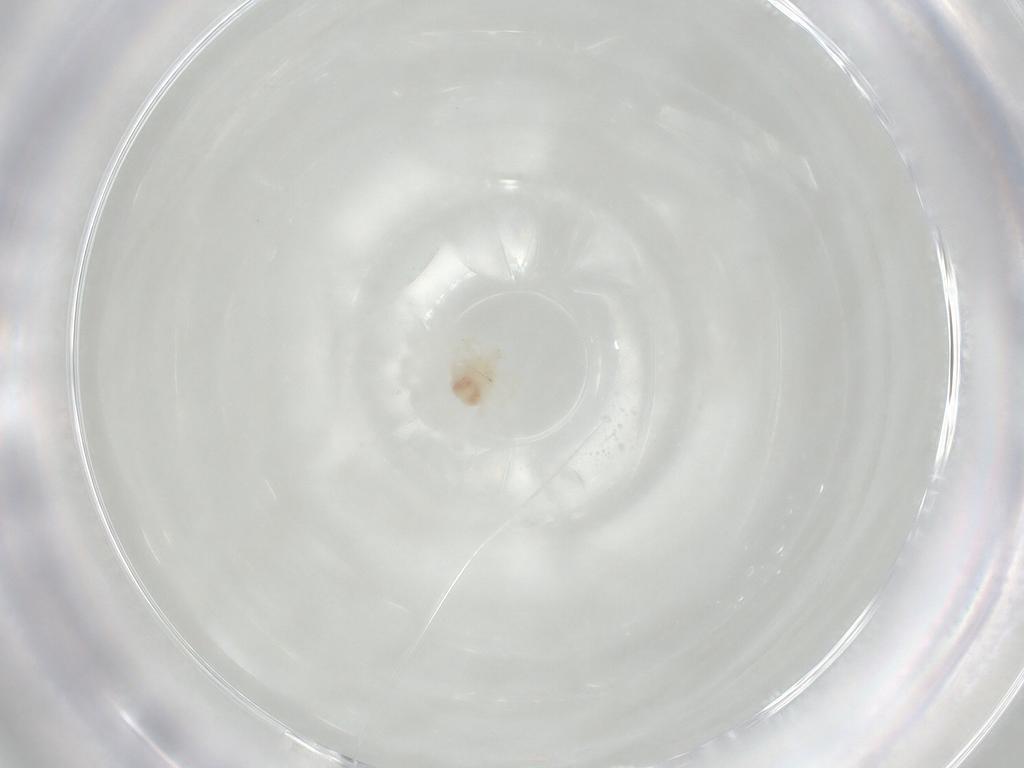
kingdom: Animalia
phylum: Arthropoda
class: Arachnida
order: Trombidiformes
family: Anystidae
